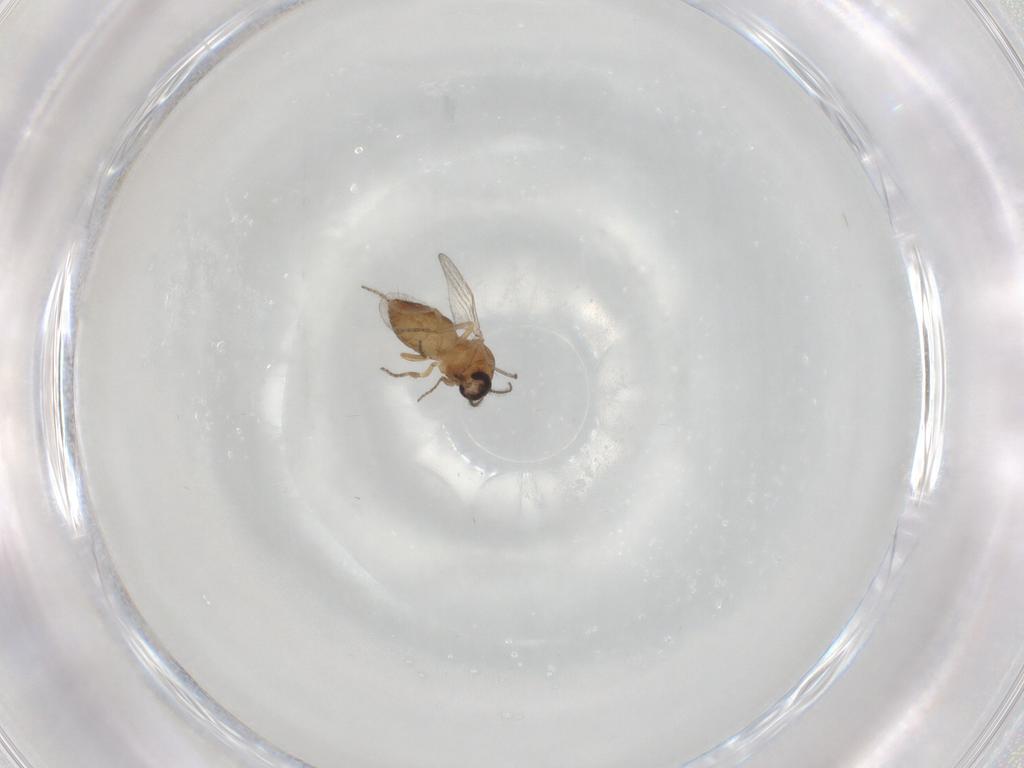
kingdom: Animalia
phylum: Arthropoda
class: Insecta
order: Diptera
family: Ceratopogonidae
